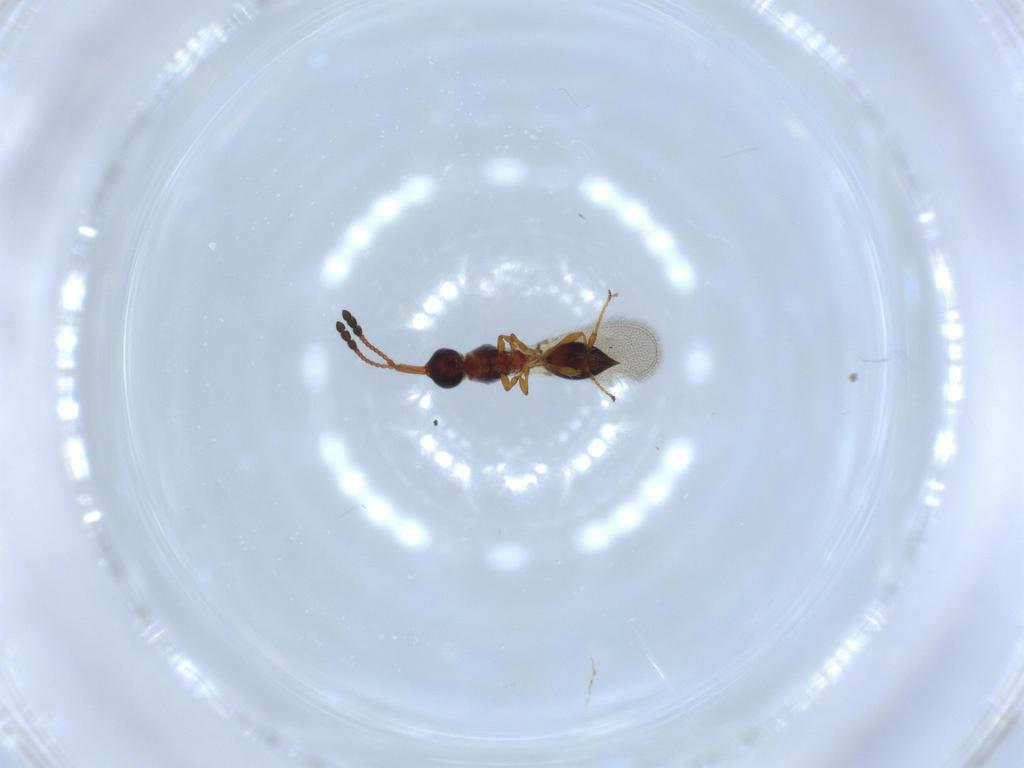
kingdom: Animalia
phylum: Arthropoda
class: Insecta
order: Hymenoptera
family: Diapriidae
